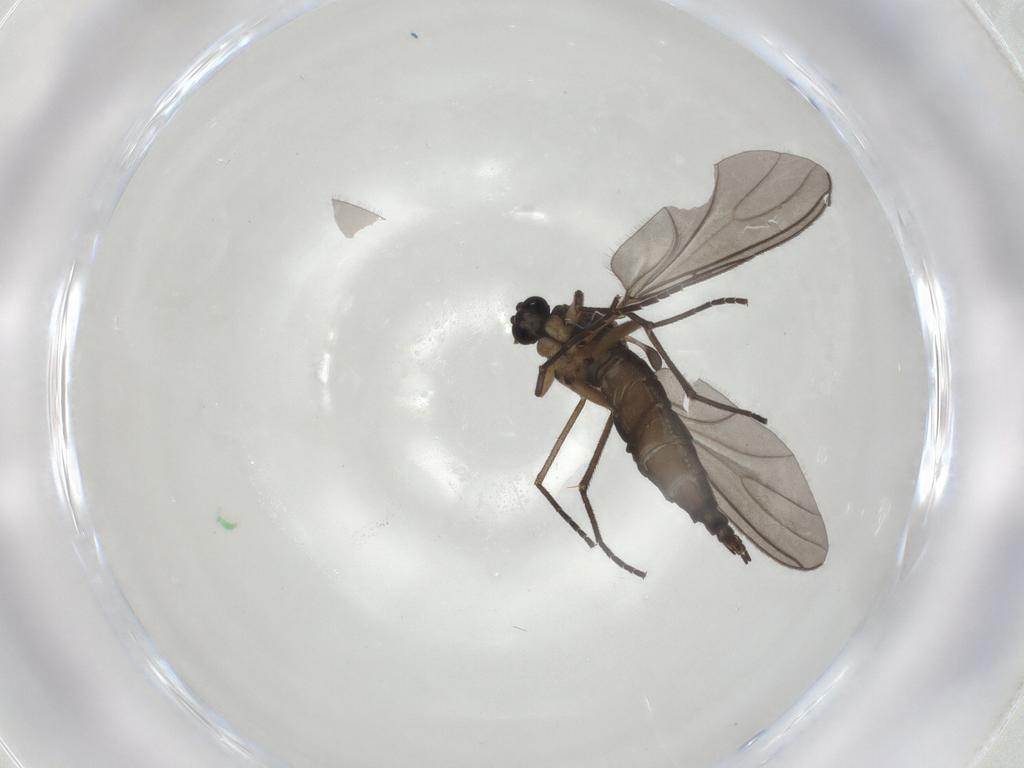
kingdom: Animalia
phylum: Arthropoda
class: Insecta
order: Diptera
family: Sciaridae
